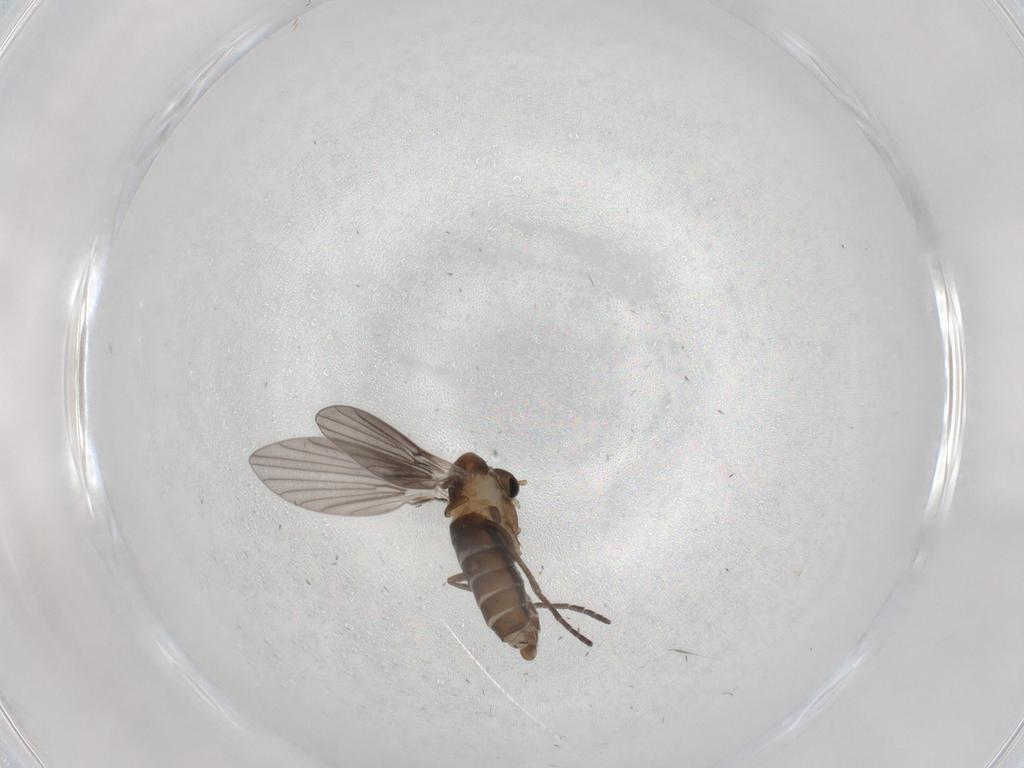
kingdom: Animalia
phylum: Arthropoda
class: Insecta
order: Diptera
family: Psychodidae
